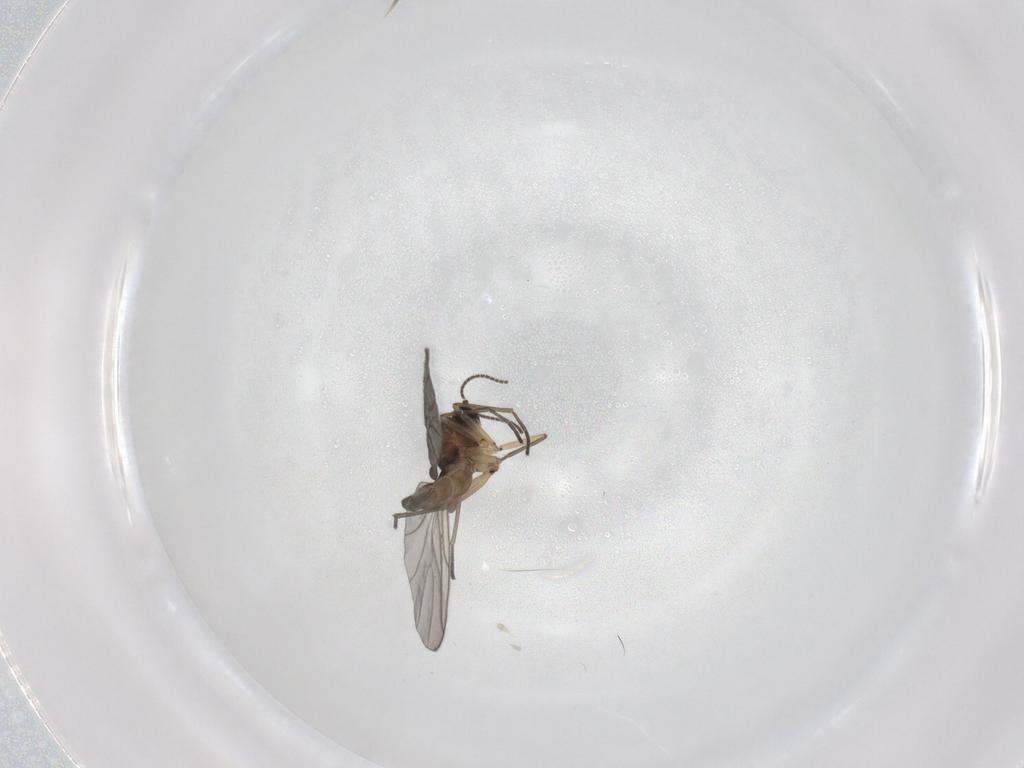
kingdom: Animalia
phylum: Arthropoda
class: Insecta
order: Diptera
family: Sciaridae
